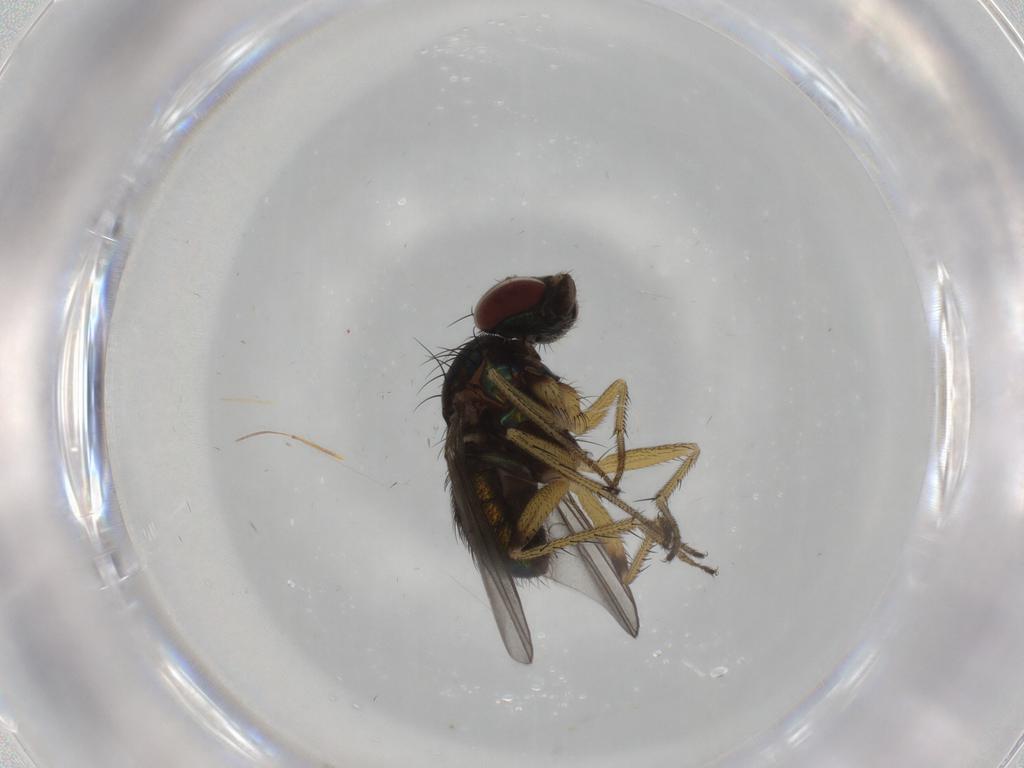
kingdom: Animalia
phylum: Arthropoda
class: Insecta
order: Diptera
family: Dolichopodidae
